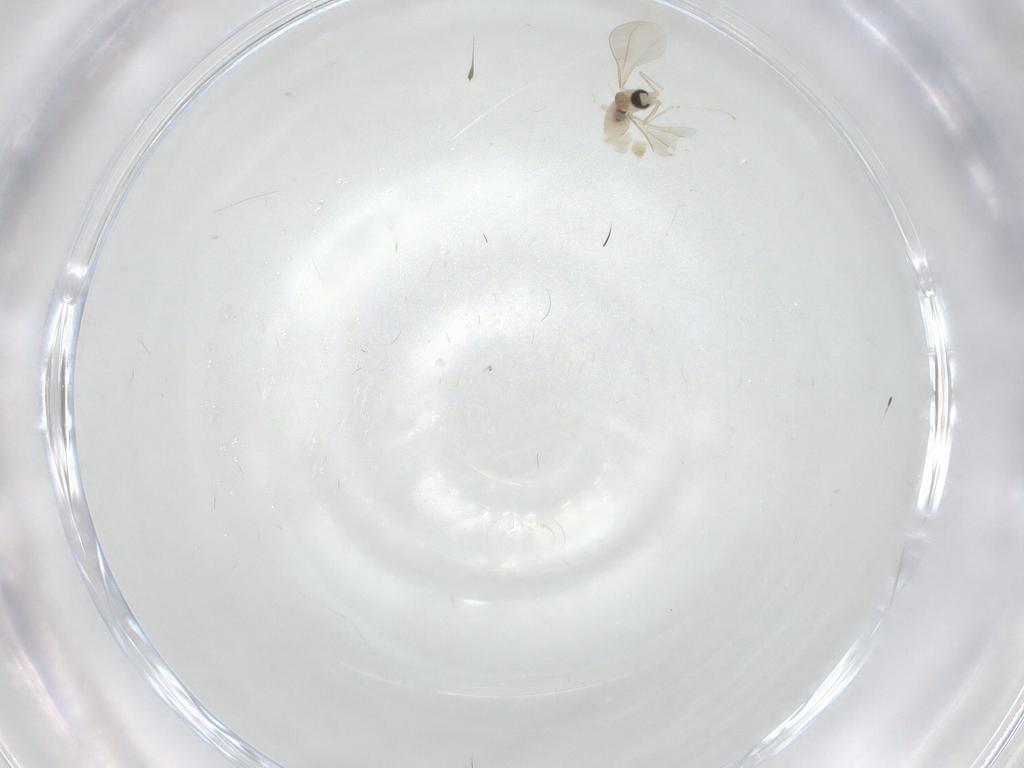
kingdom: Animalia
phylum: Arthropoda
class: Insecta
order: Diptera
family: Cecidomyiidae
